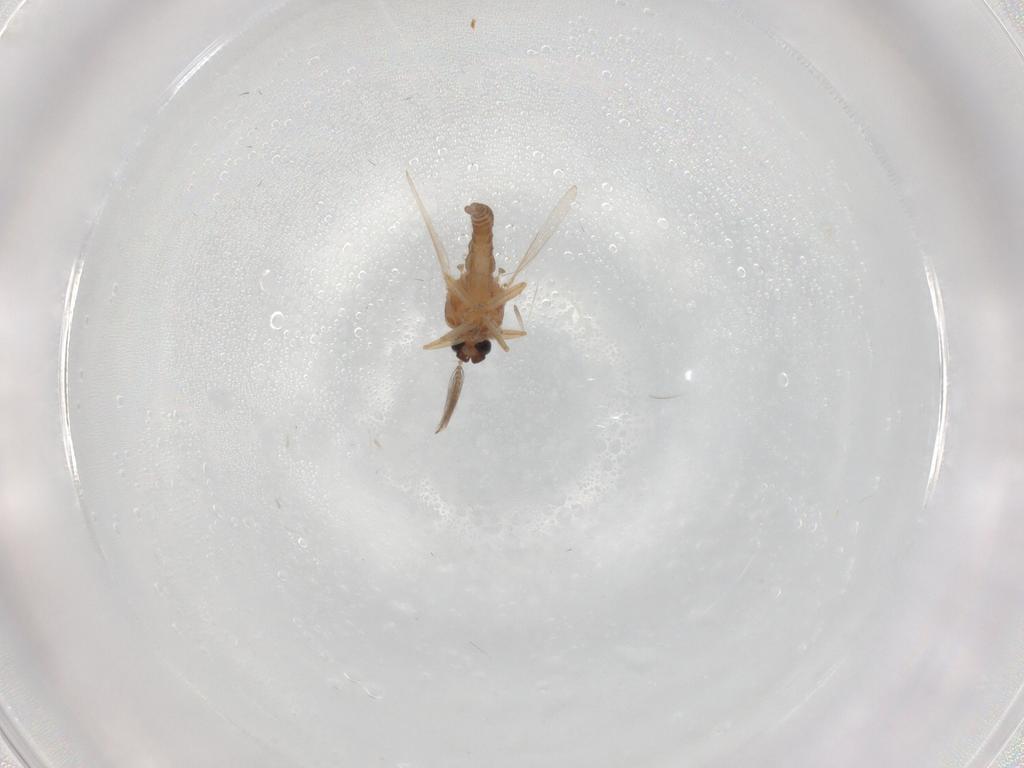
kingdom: Animalia
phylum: Arthropoda
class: Insecta
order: Diptera
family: Ceratopogonidae
